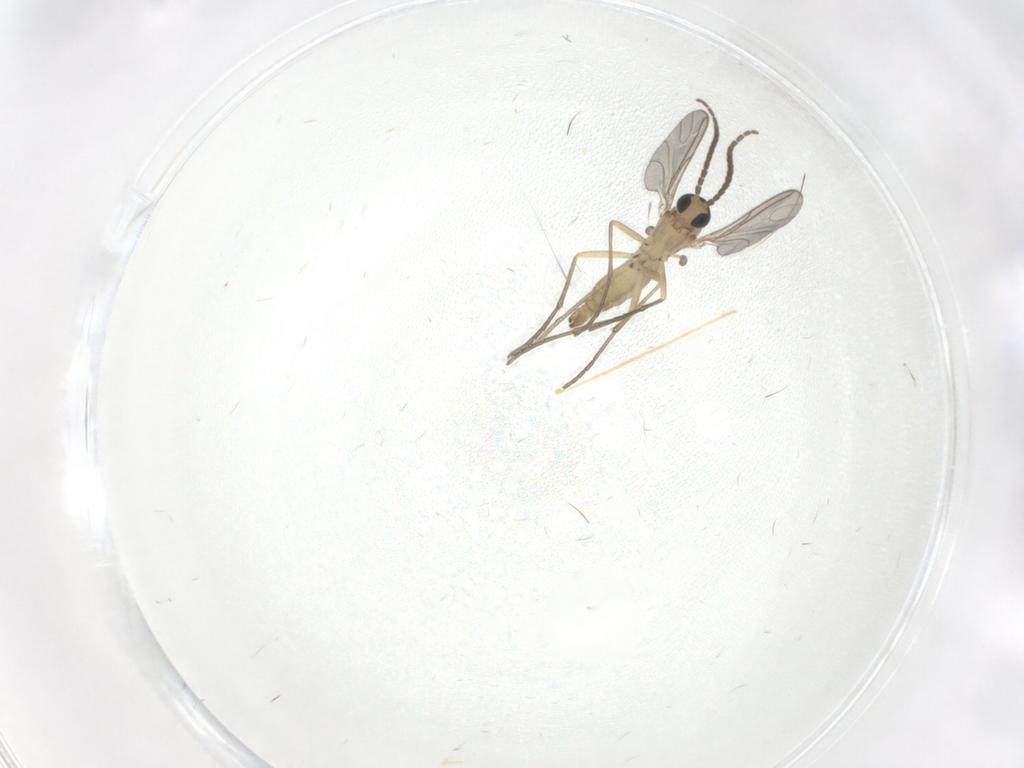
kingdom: Animalia
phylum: Arthropoda
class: Insecta
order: Diptera
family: Sciaridae
